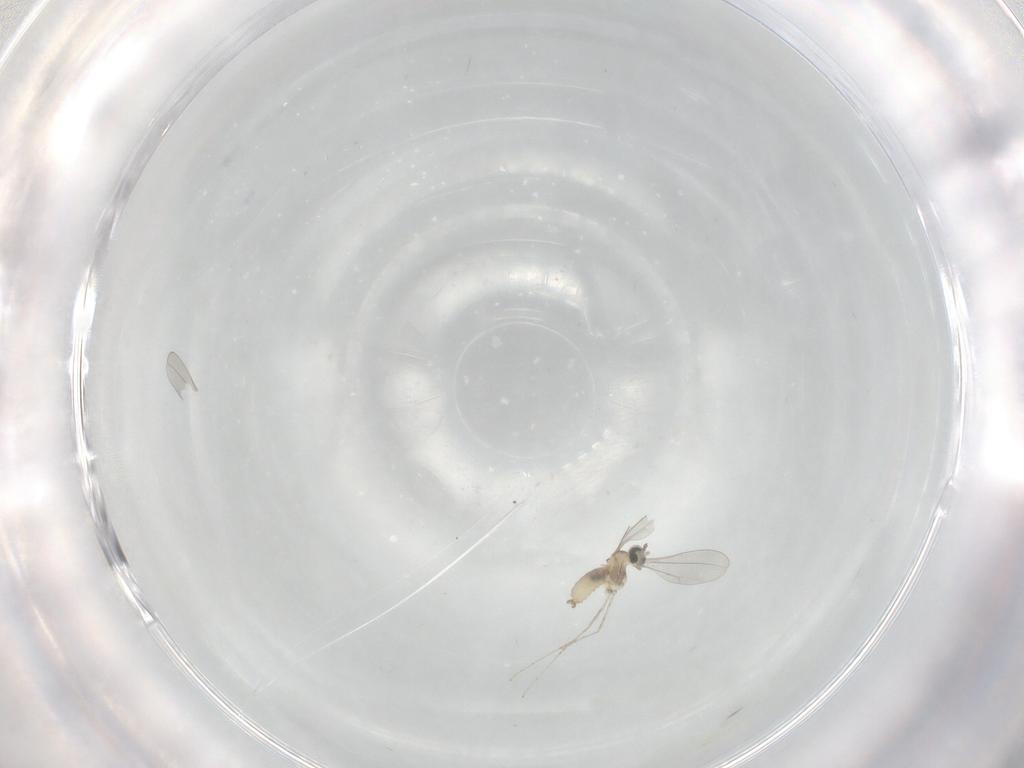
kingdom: Animalia
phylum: Arthropoda
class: Insecta
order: Diptera
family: Cecidomyiidae
